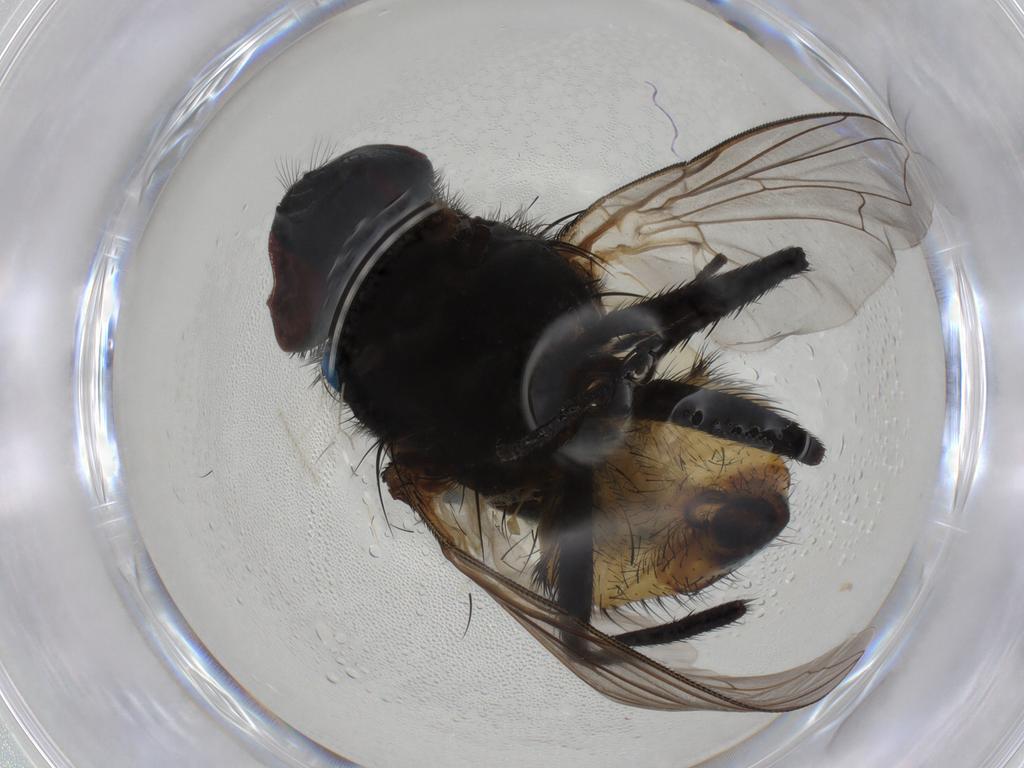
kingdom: Animalia
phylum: Arthropoda
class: Insecta
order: Diptera
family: Muscidae
